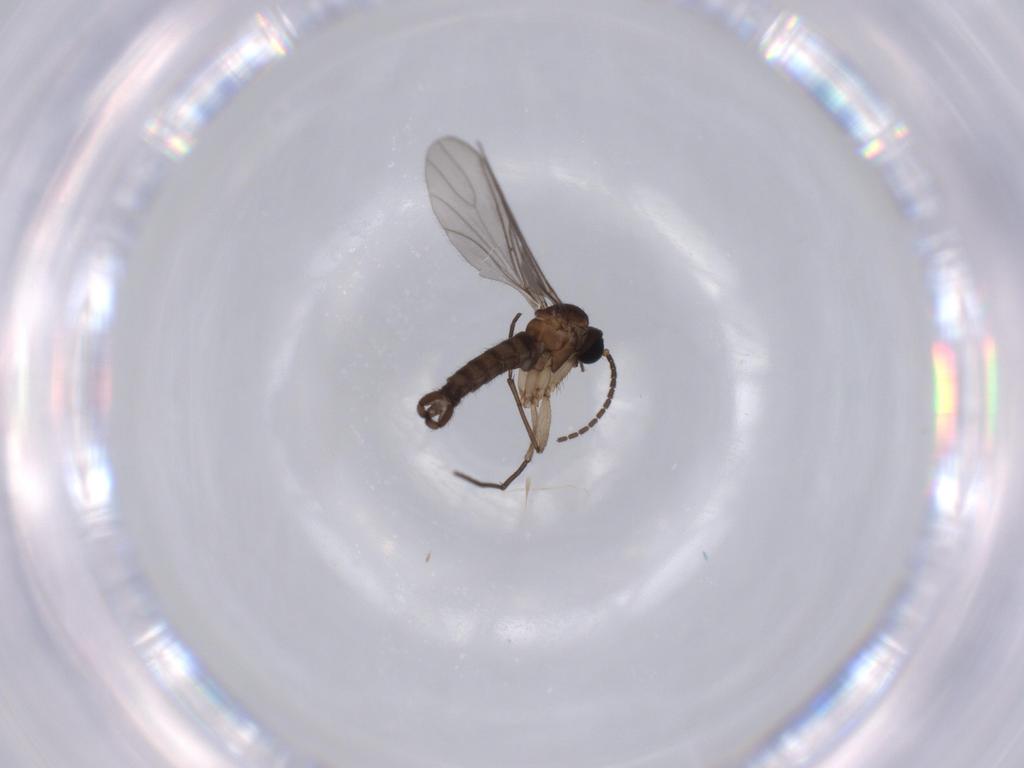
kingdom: Animalia
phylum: Arthropoda
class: Insecta
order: Diptera
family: Sciaridae
